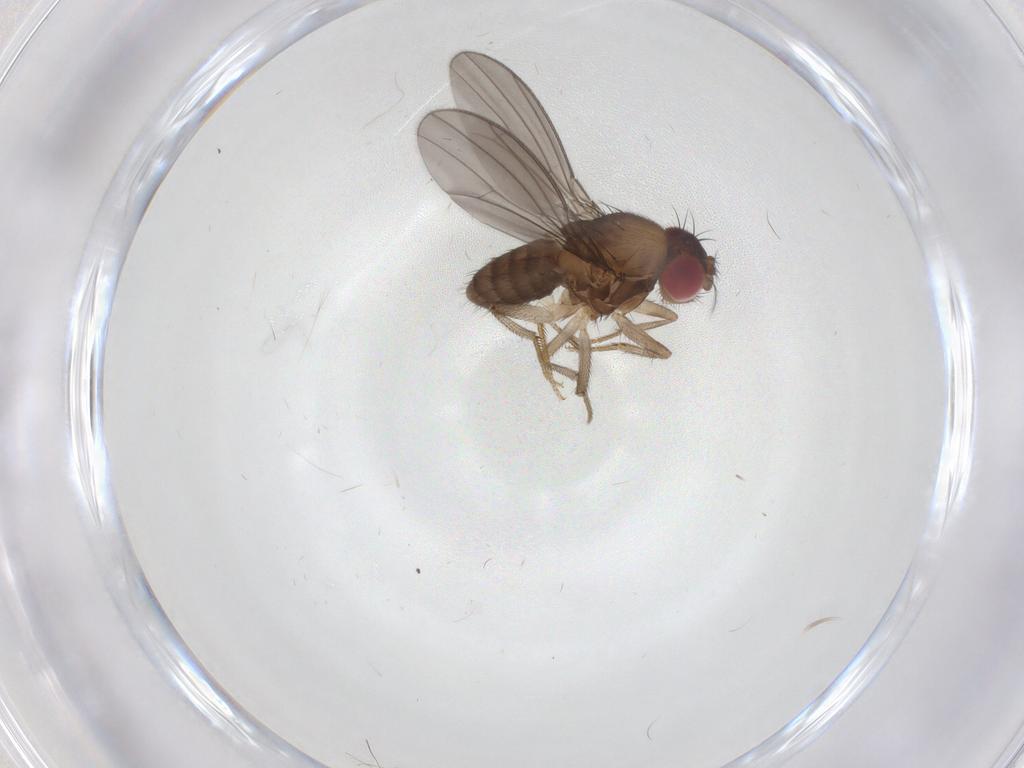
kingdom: Animalia
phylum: Arthropoda
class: Insecta
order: Diptera
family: Drosophilidae
